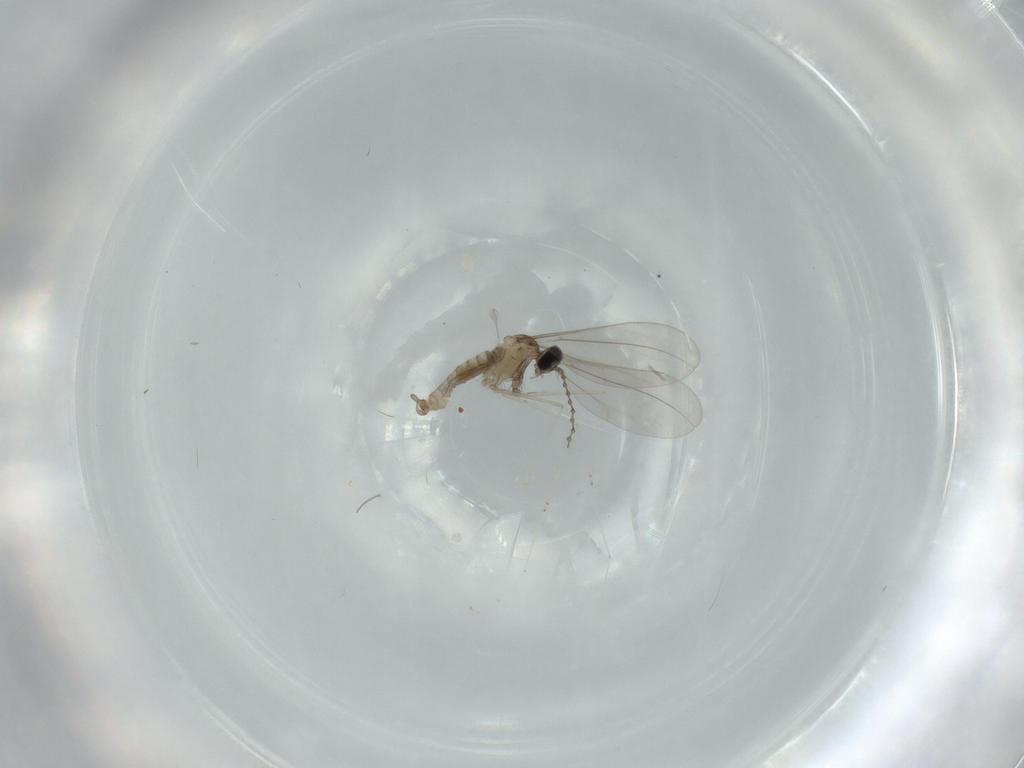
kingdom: Animalia
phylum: Arthropoda
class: Insecta
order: Diptera
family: Cecidomyiidae
